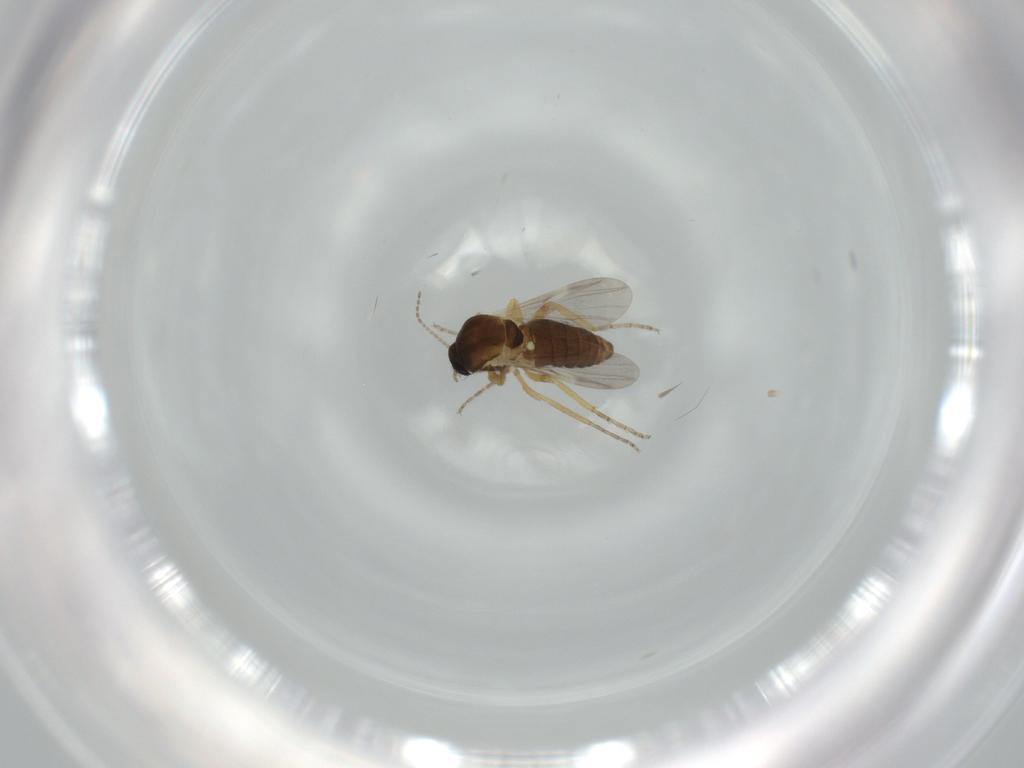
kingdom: Animalia
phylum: Arthropoda
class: Insecta
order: Diptera
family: Ceratopogonidae
